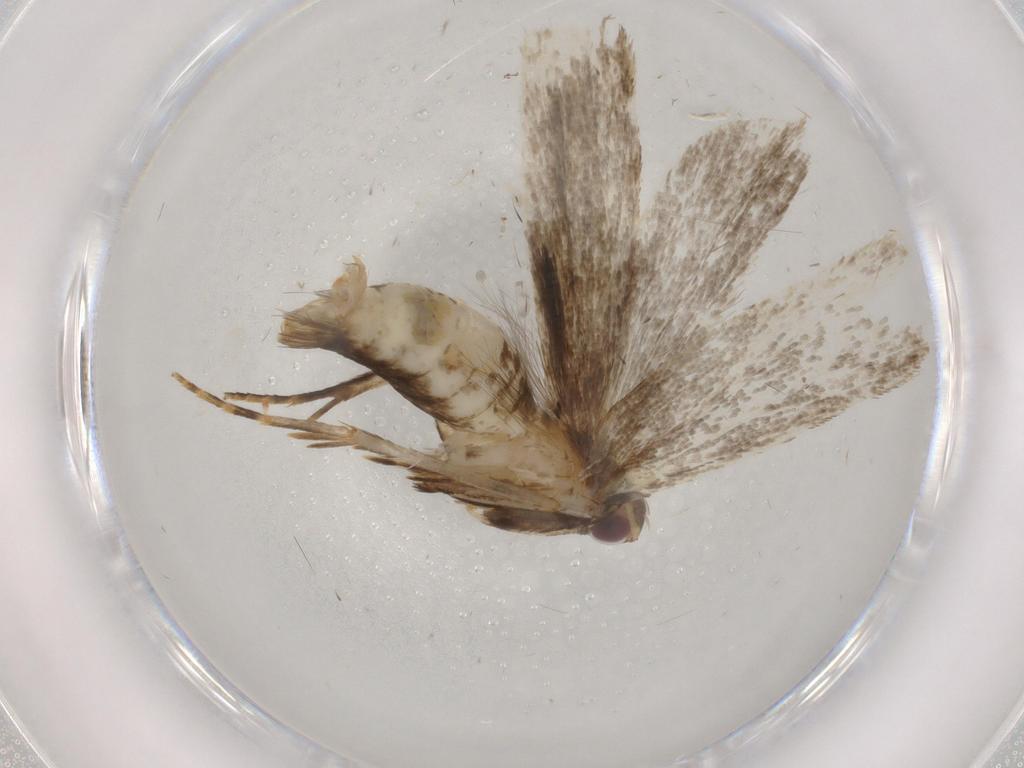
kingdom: Animalia
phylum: Arthropoda
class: Insecta
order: Lepidoptera
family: Gelechiidae
